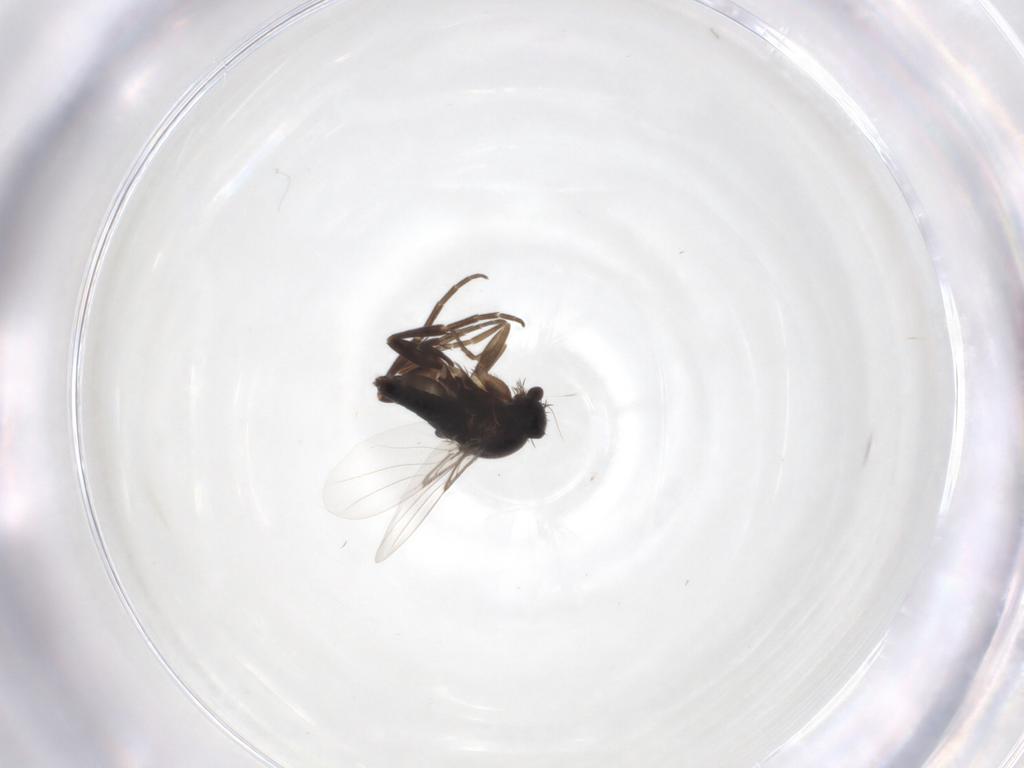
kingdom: Animalia
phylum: Arthropoda
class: Insecta
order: Diptera
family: Phoridae
